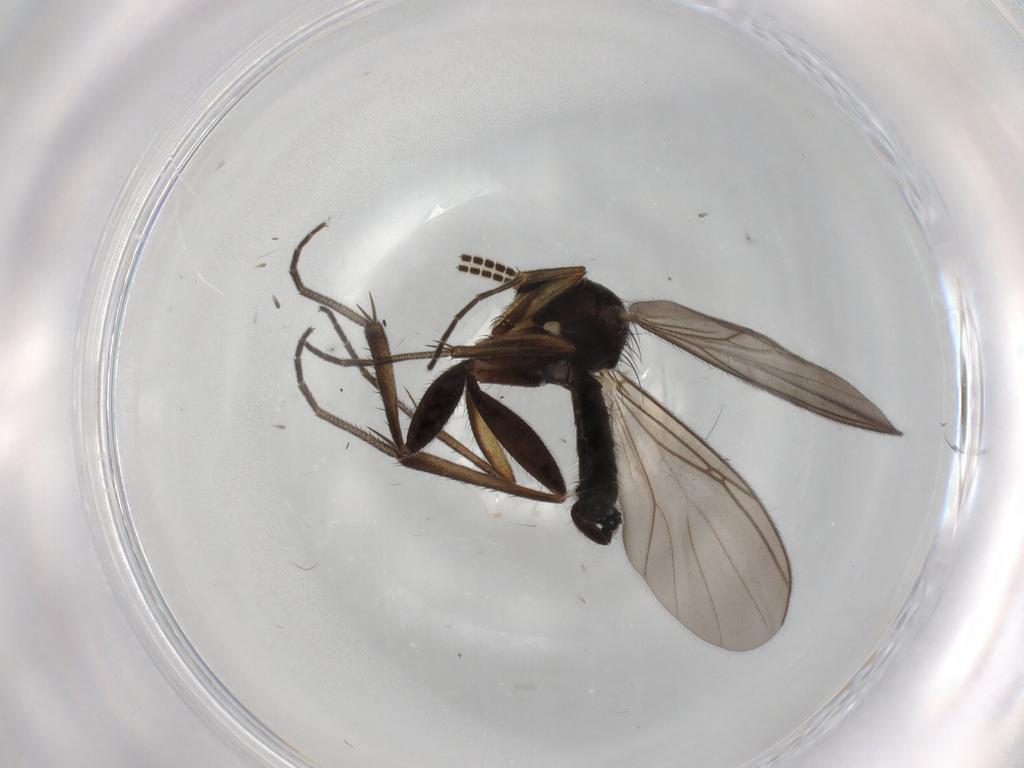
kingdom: Animalia
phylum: Arthropoda
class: Insecta
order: Diptera
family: Mycetophilidae
